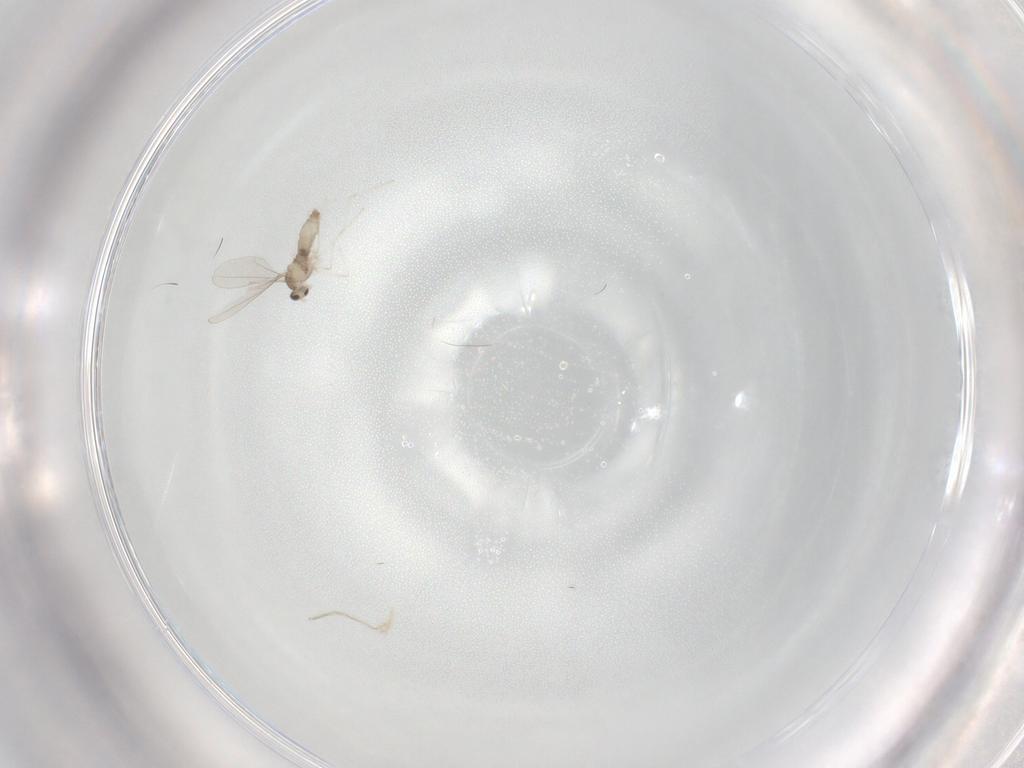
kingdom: Animalia
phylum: Arthropoda
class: Insecta
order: Diptera
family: Cecidomyiidae
